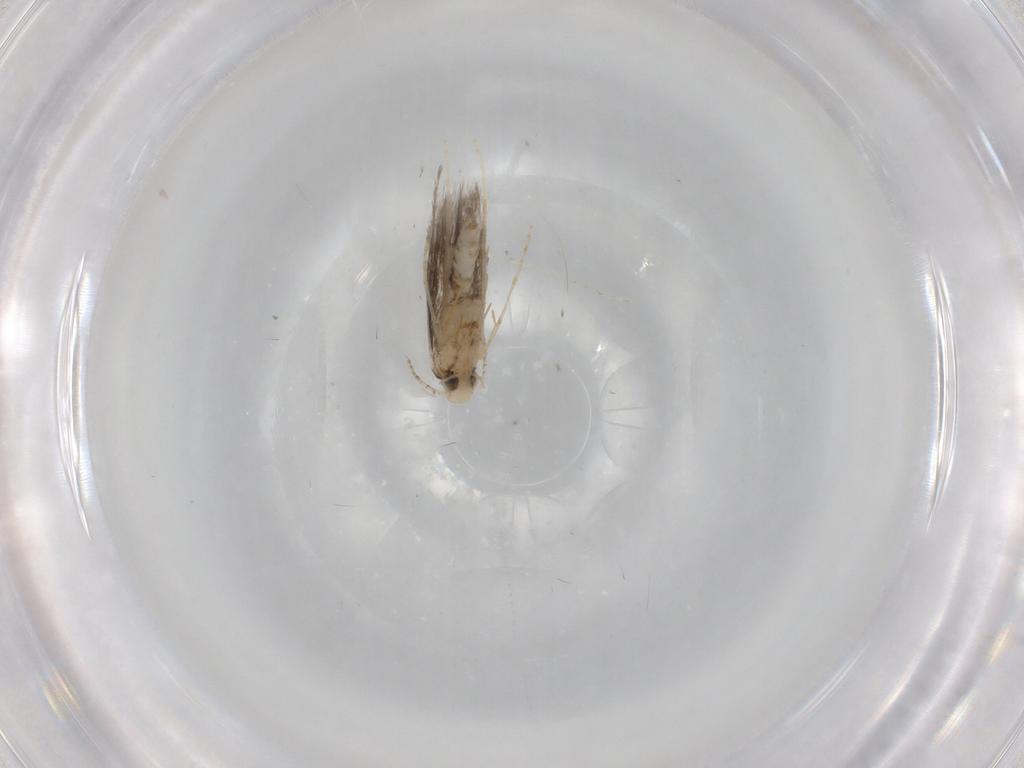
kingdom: Animalia
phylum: Arthropoda
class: Insecta
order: Lepidoptera
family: Gracillariidae
